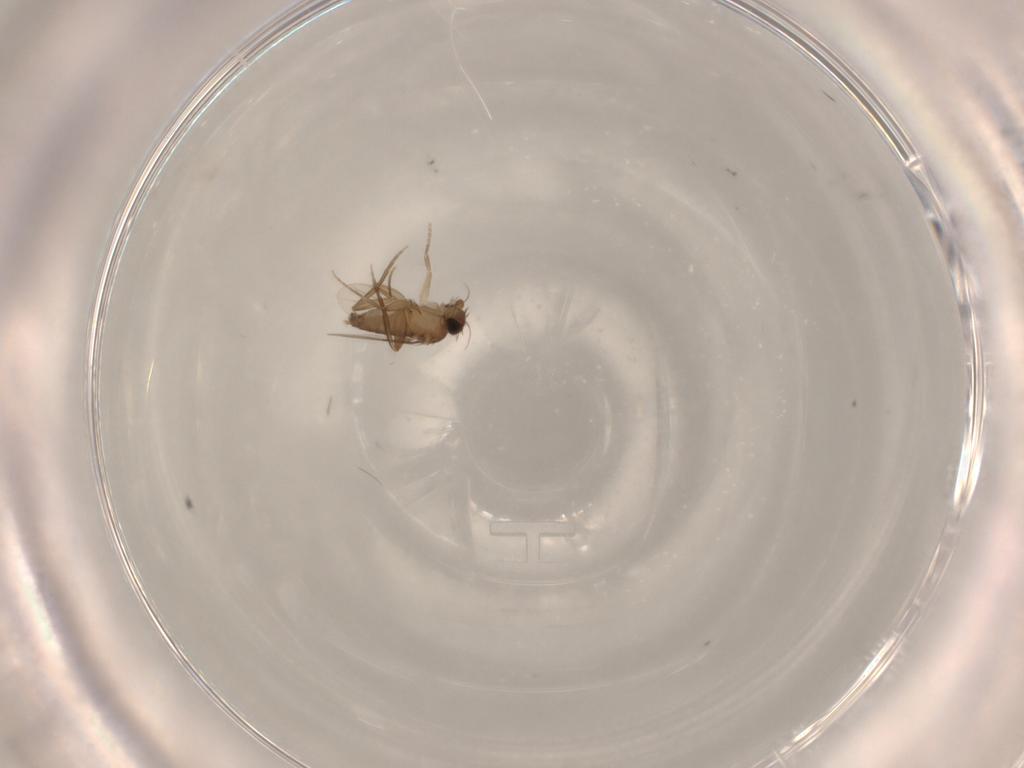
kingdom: Animalia
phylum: Arthropoda
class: Insecta
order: Diptera
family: Phoridae
